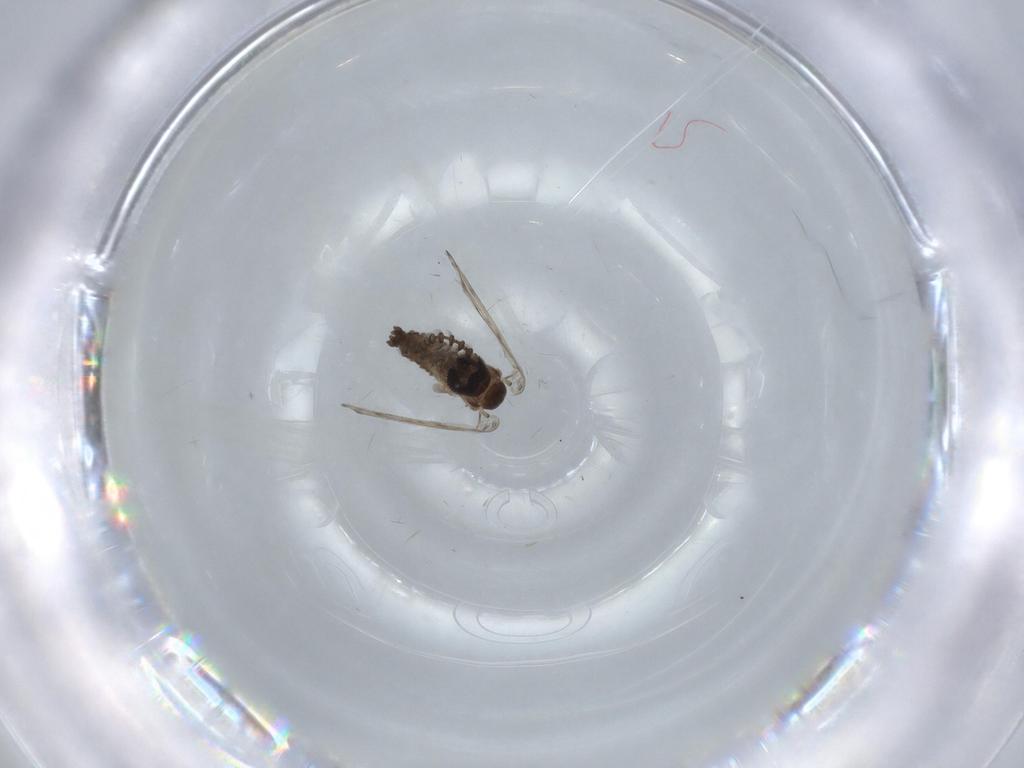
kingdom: Animalia
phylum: Arthropoda
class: Insecta
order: Diptera
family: Psychodidae
